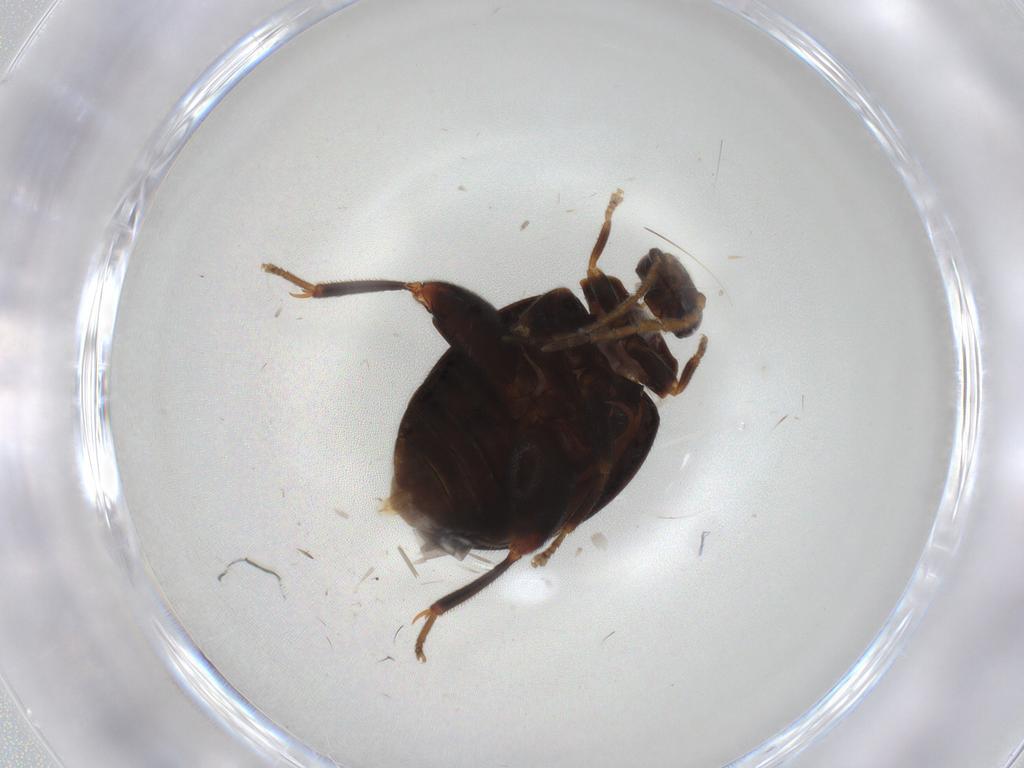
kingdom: Animalia
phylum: Arthropoda
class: Insecta
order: Coleoptera
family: Scirtidae
